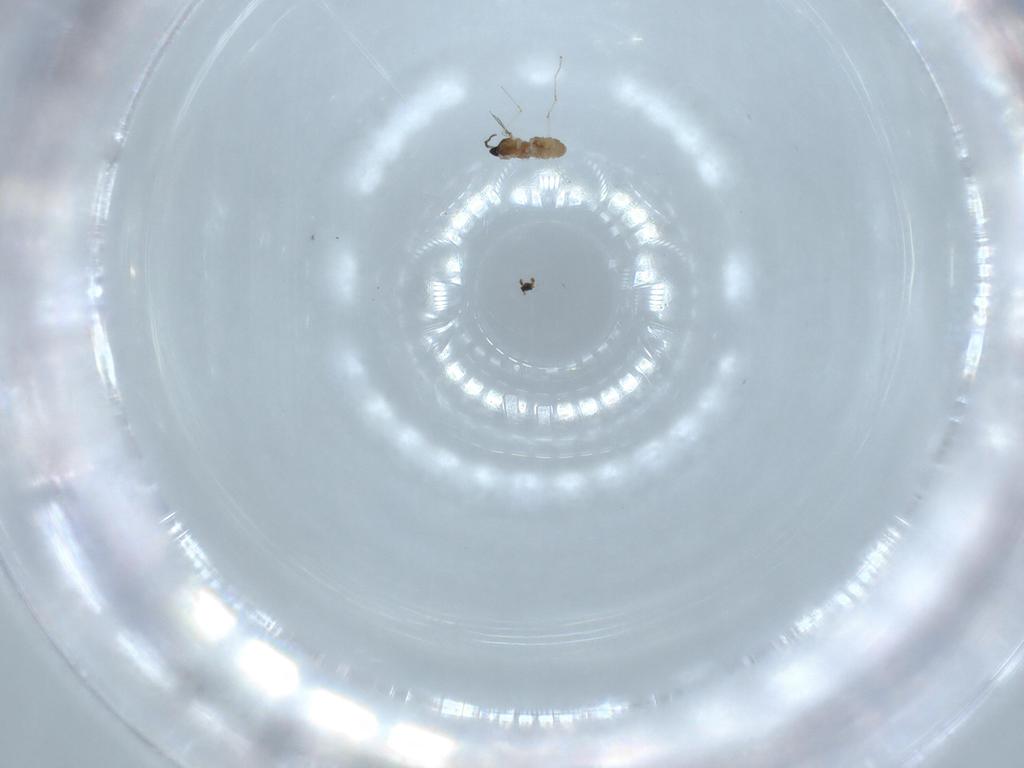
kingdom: Animalia
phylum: Arthropoda
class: Insecta
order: Diptera
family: Cecidomyiidae
